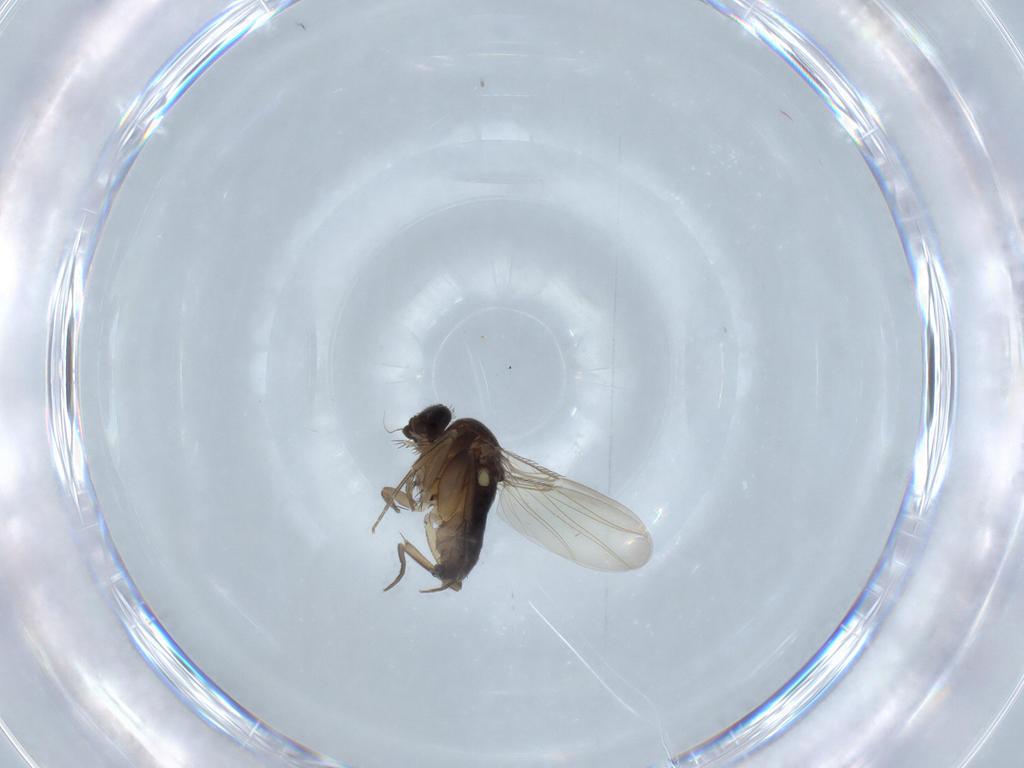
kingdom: Animalia
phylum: Arthropoda
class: Insecta
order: Diptera
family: Phoridae
